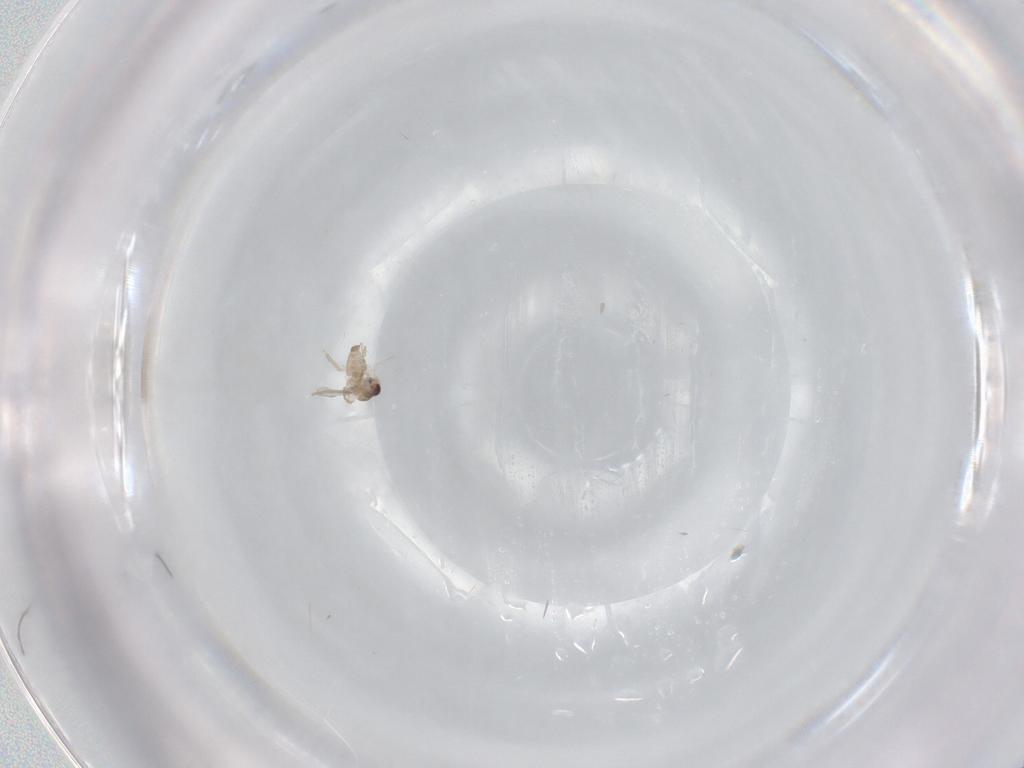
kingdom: Animalia
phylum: Arthropoda
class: Insecta
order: Diptera
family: Cecidomyiidae
